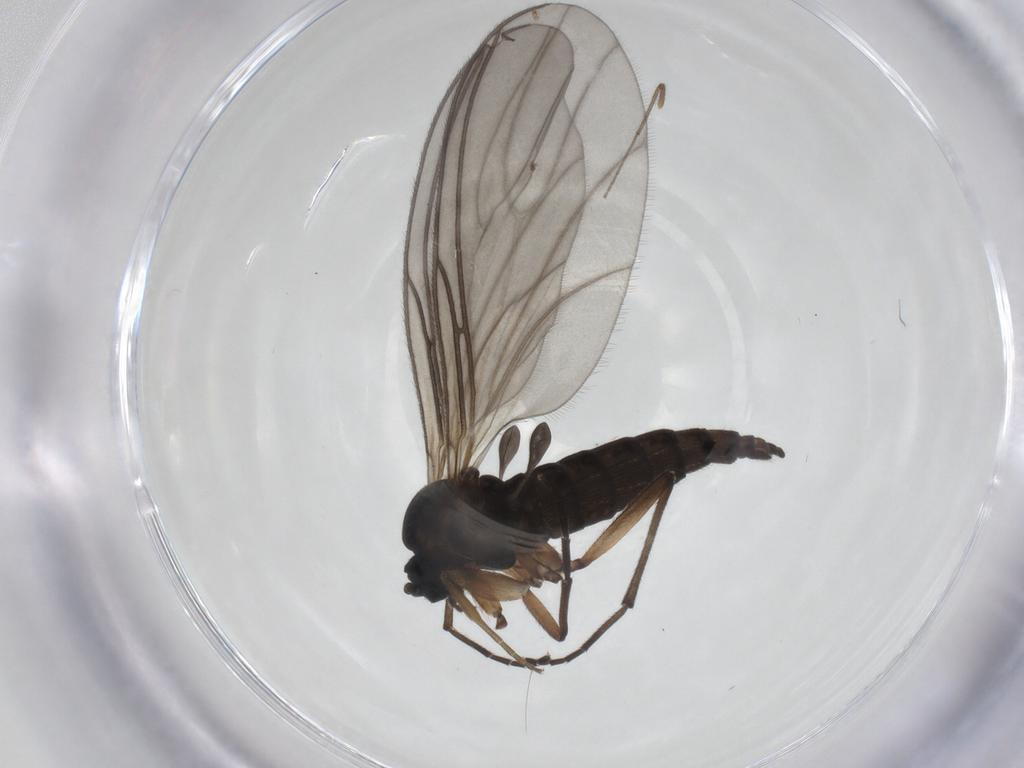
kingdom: Animalia
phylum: Arthropoda
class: Insecta
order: Diptera
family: Sciaridae
